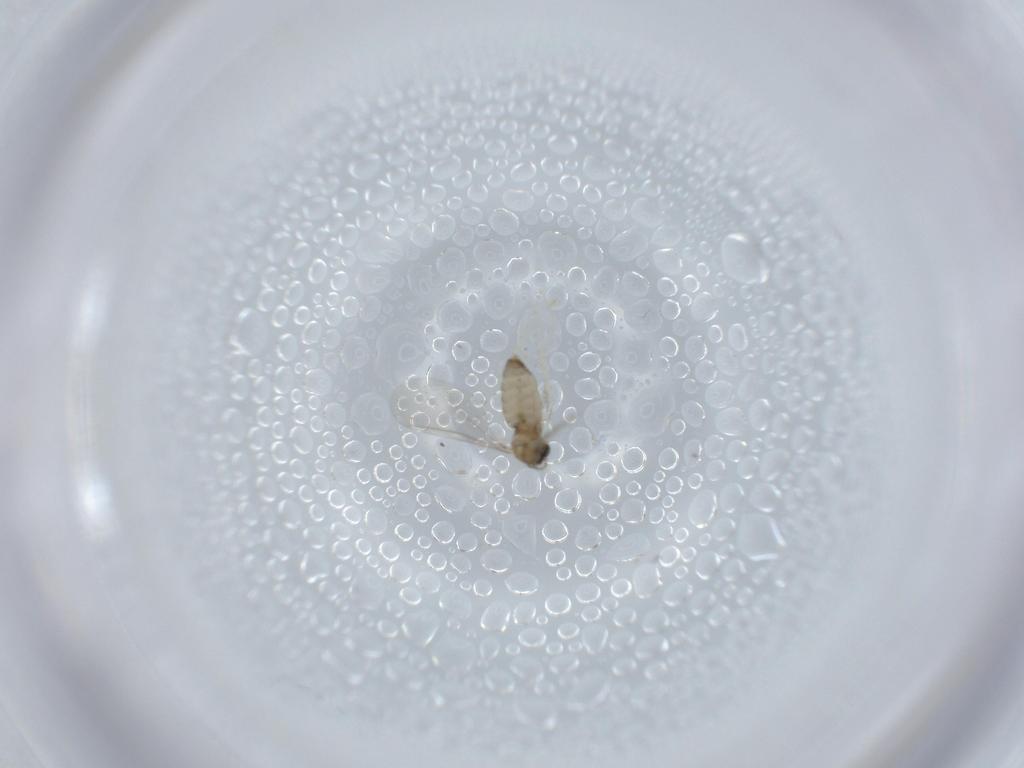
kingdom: Animalia
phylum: Arthropoda
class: Insecta
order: Diptera
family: Cecidomyiidae
